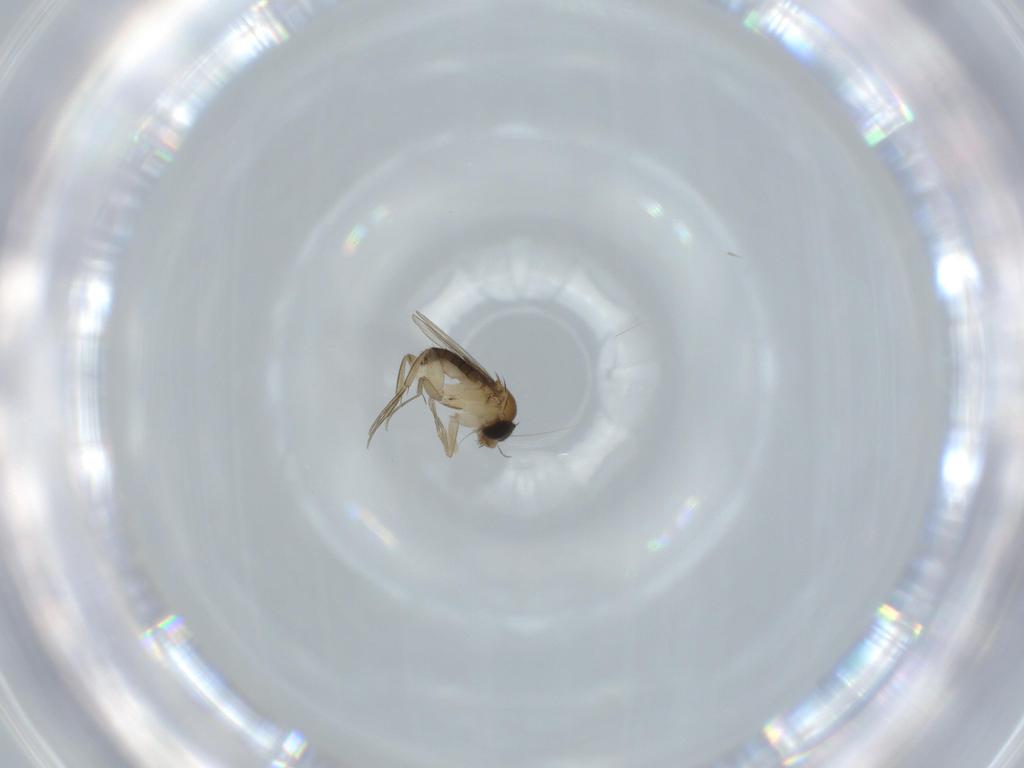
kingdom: Animalia
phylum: Arthropoda
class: Insecta
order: Diptera
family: Phoridae
